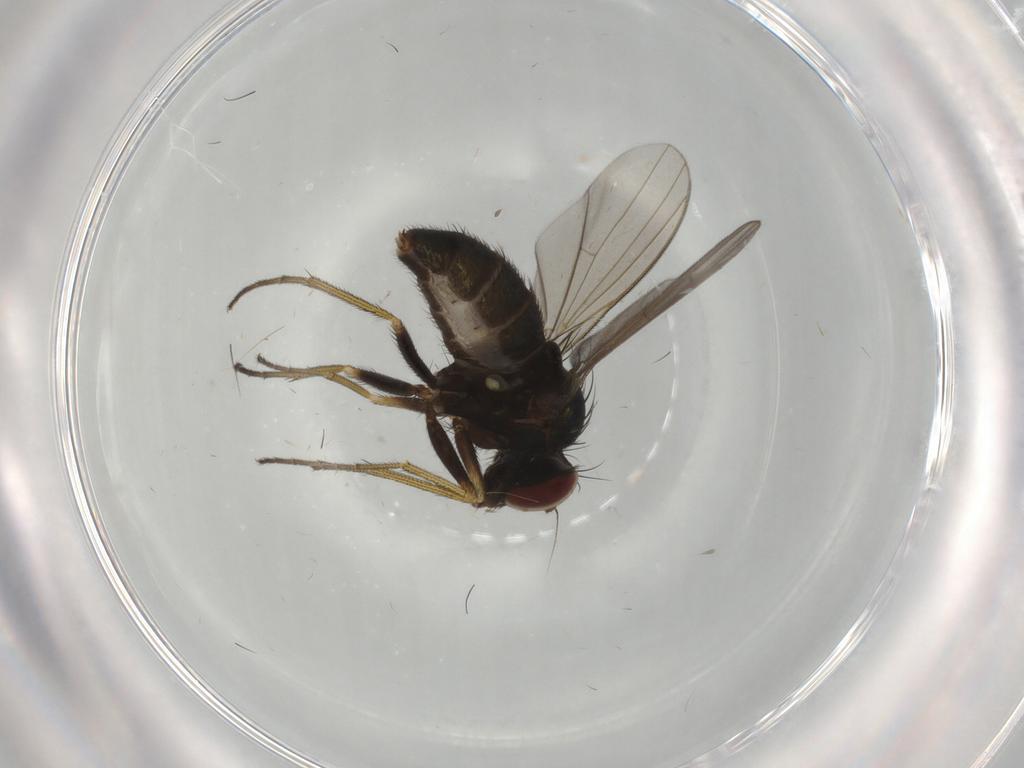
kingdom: Animalia
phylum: Arthropoda
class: Insecta
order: Diptera
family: Dolichopodidae
